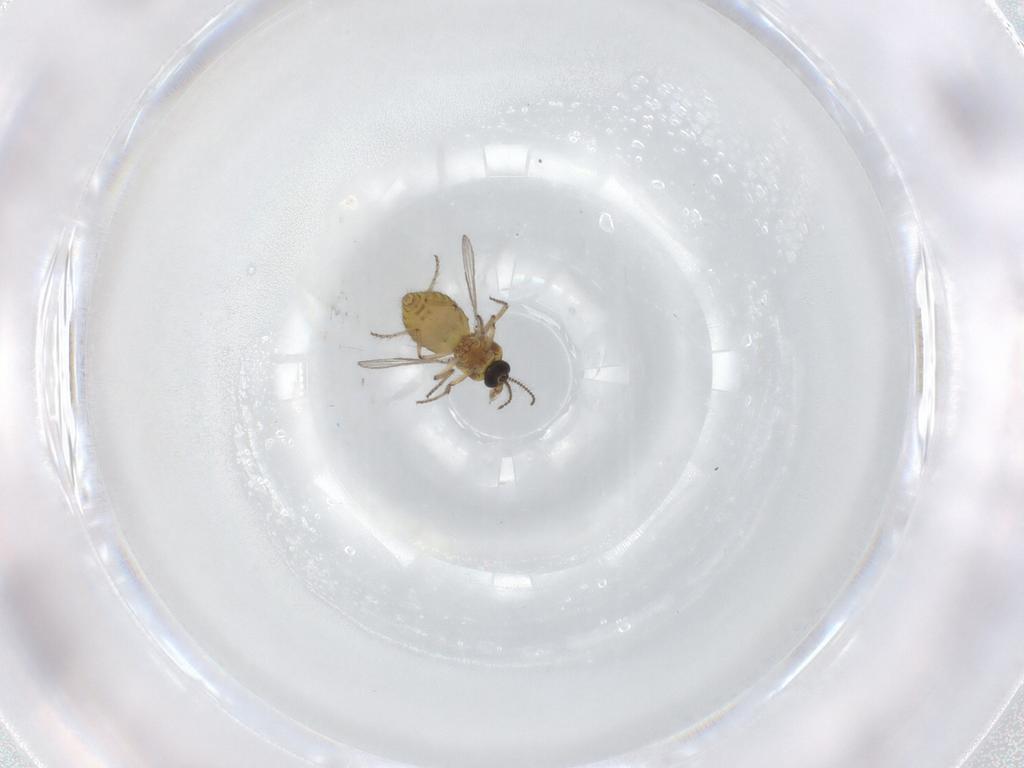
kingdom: Animalia
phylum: Arthropoda
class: Insecta
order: Diptera
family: Ceratopogonidae
